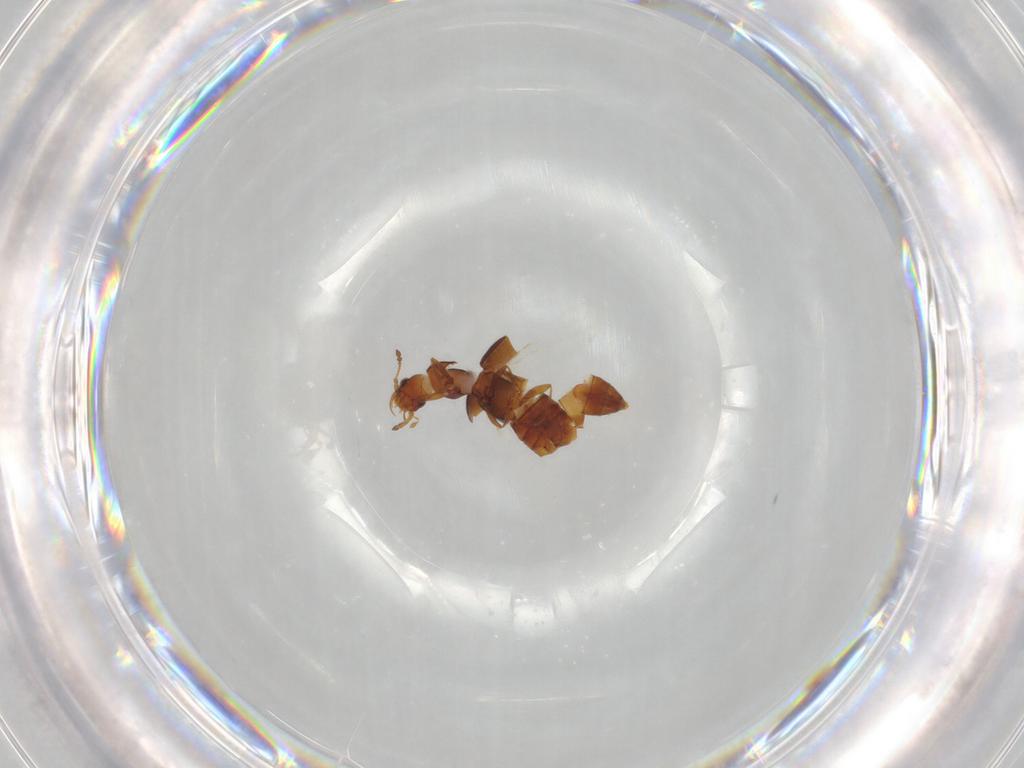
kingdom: Animalia
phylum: Arthropoda
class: Insecta
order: Coleoptera
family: Staphylinidae
